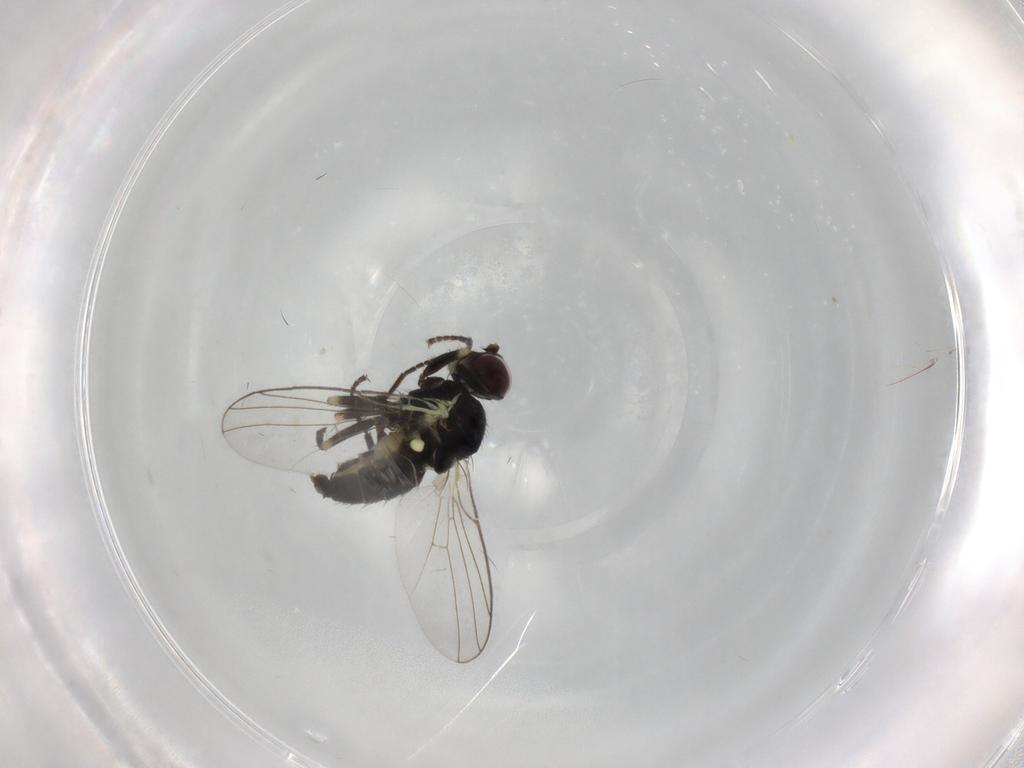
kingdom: Animalia
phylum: Arthropoda
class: Insecta
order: Diptera
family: Agromyzidae
